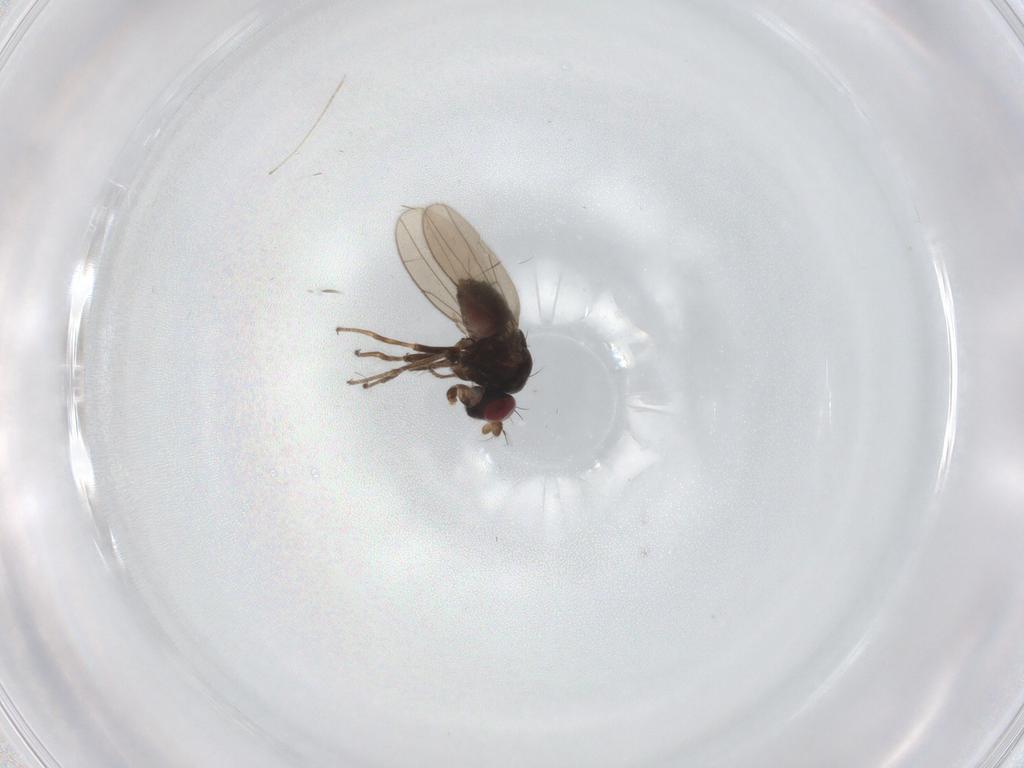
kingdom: Animalia
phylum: Arthropoda
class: Insecta
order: Diptera
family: Ephydridae
